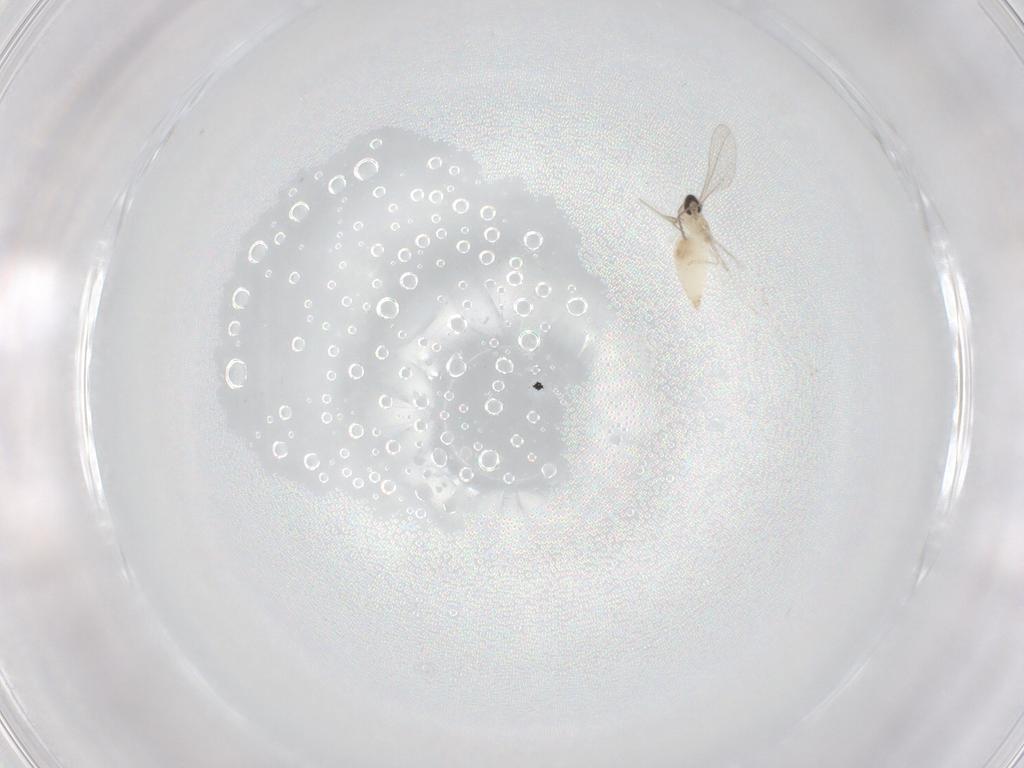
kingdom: Animalia
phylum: Arthropoda
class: Insecta
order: Diptera
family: Cecidomyiidae
